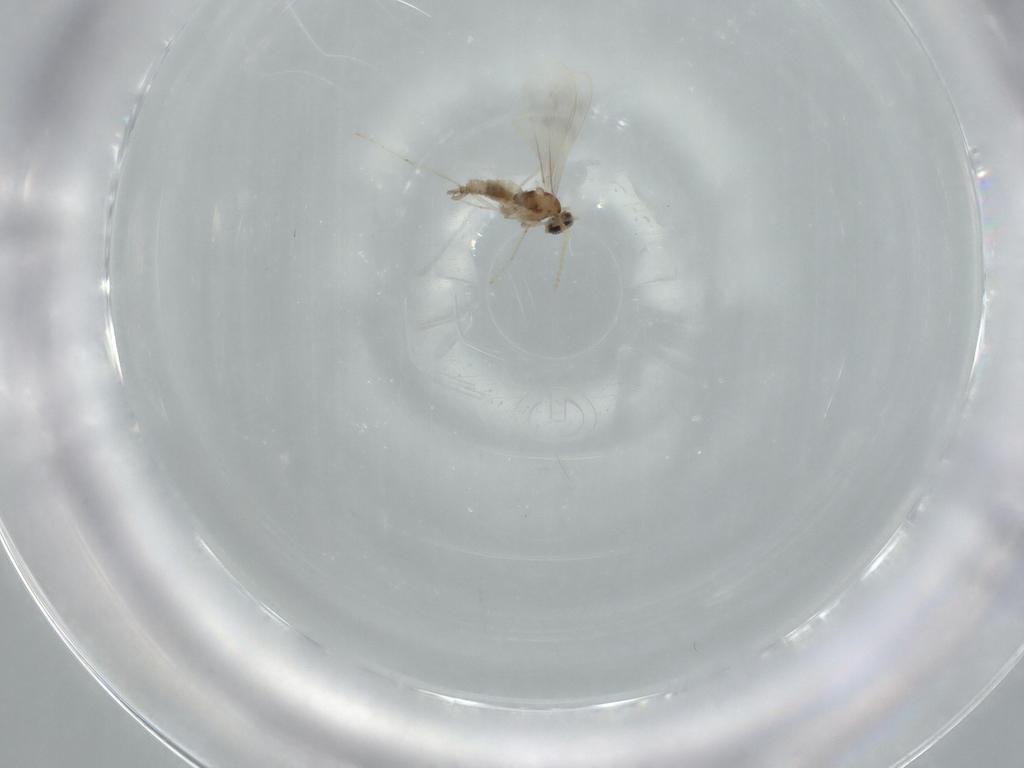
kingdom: Animalia
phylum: Arthropoda
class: Insecta
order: Diptera
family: Cecidomyiidae
